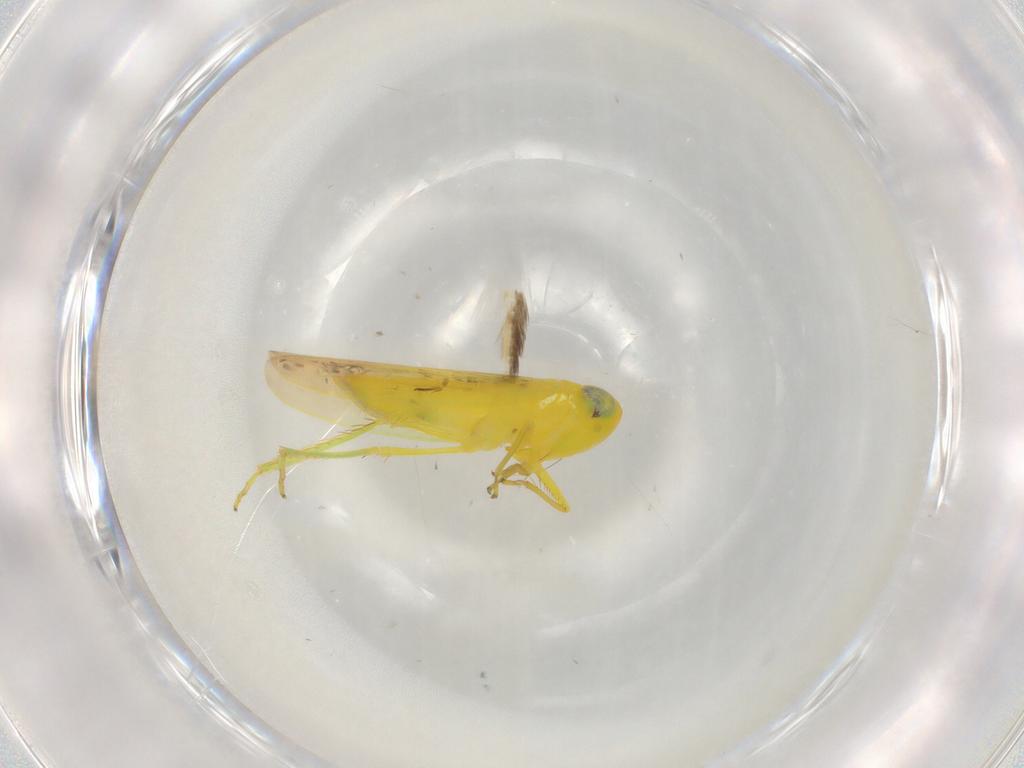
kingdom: Animalia
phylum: Arthropoda
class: Insecta
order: Hemiptera
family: Cicadellidae
